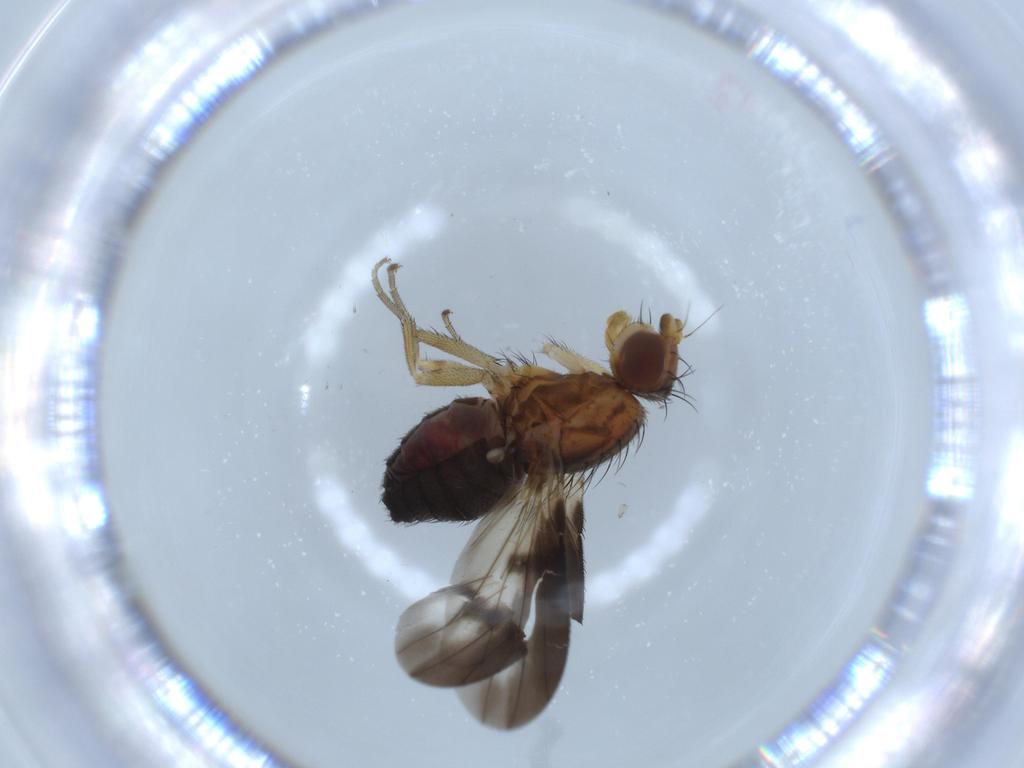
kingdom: Animalia
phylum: Arthropoda
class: Insecta
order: Diptera
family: Heleomyzidae
